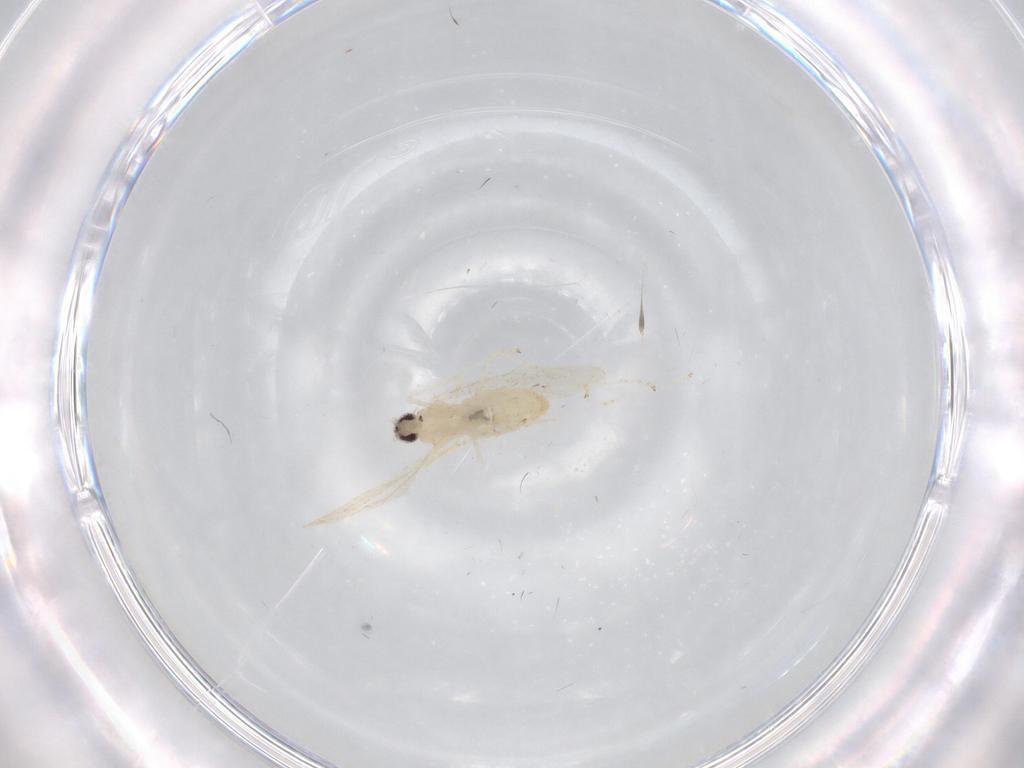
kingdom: Animalia
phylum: Arthropoda
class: Insecta
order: Diptera
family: Cecidomyiidae
